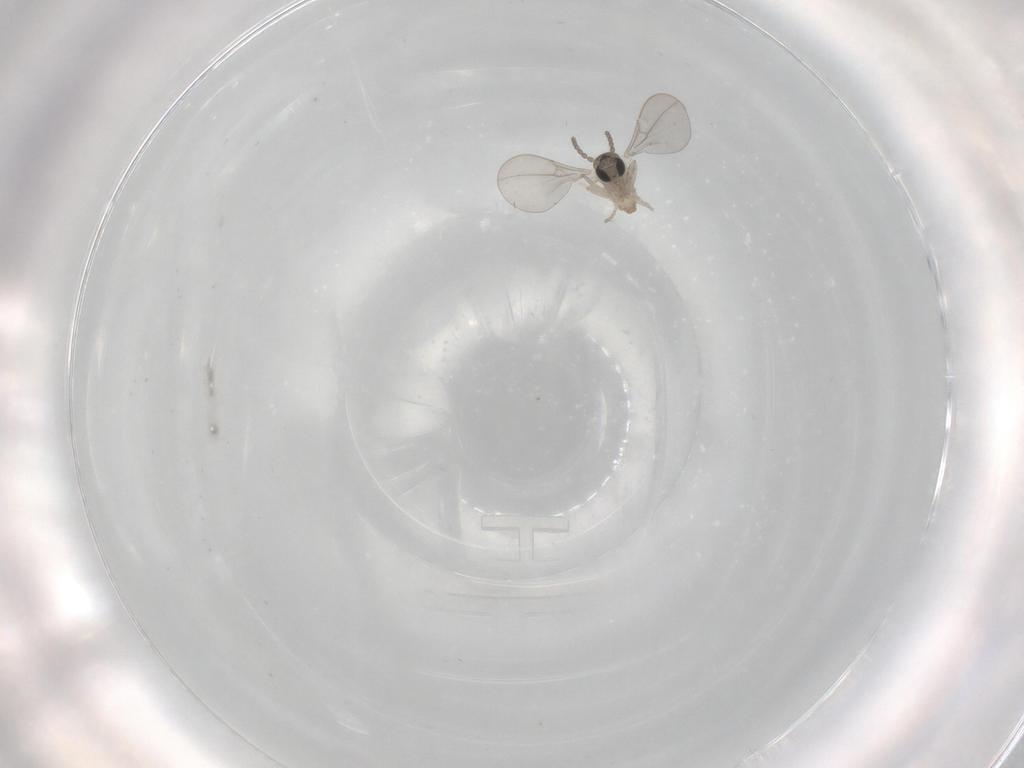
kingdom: Animalia
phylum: Arthropoda
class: Insecta
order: Diptera
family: Cecidomyiidae
